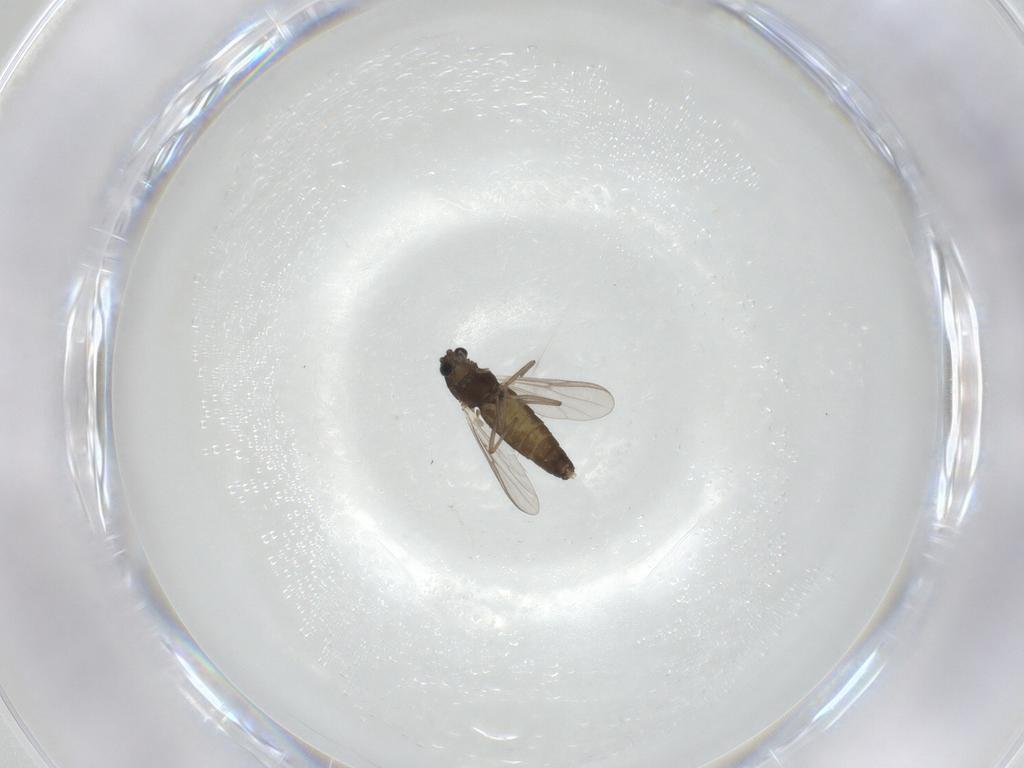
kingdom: Animalia
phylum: Arthropoda
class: Insecta
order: Diptera
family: Chironomidae
